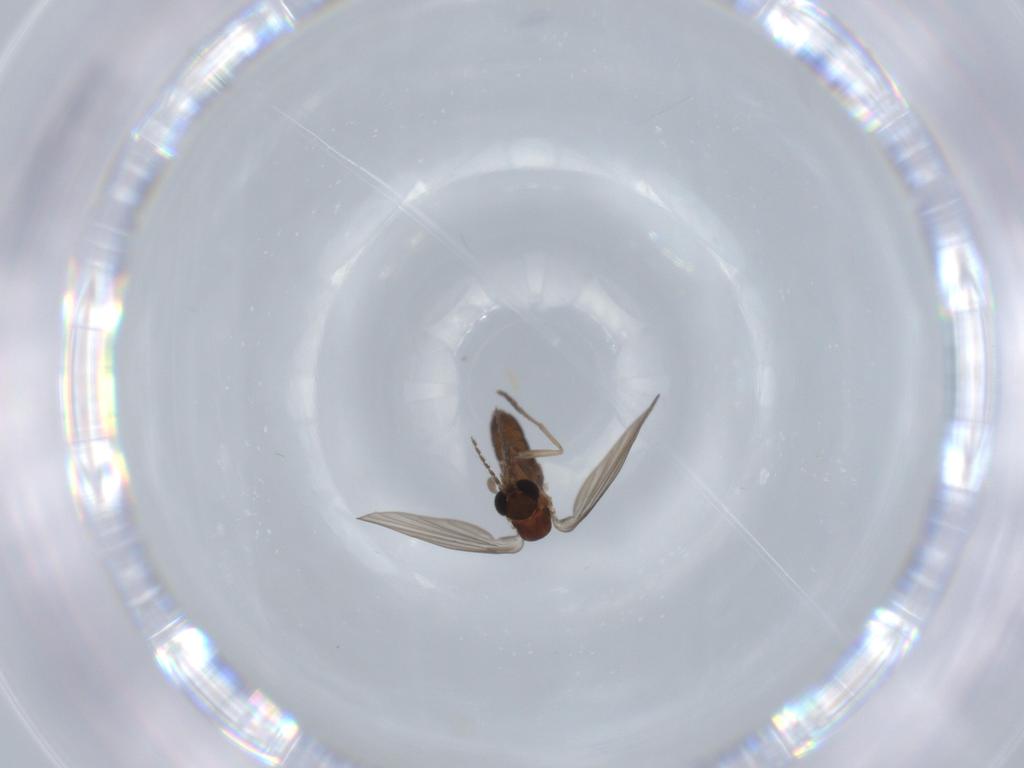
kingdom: Animalia
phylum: Arthropoda
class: Insecta
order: Diptera
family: Psychodidae
